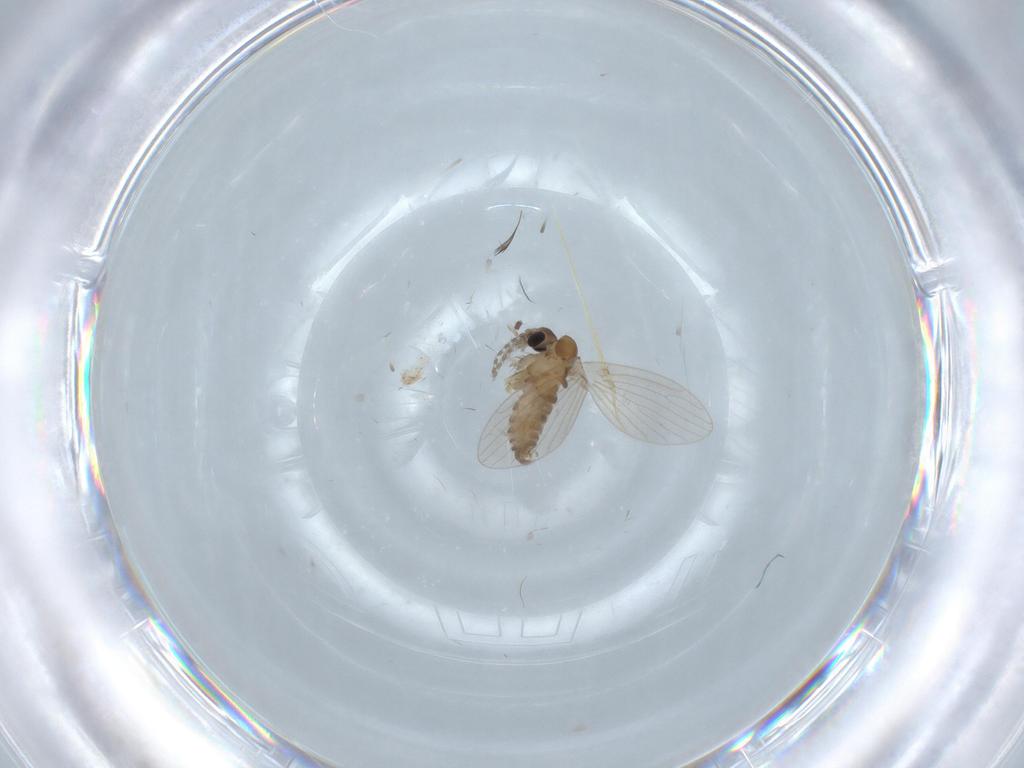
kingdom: Animalia
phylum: Arthropoda
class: Insecta
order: Diptera
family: Sciaridae
